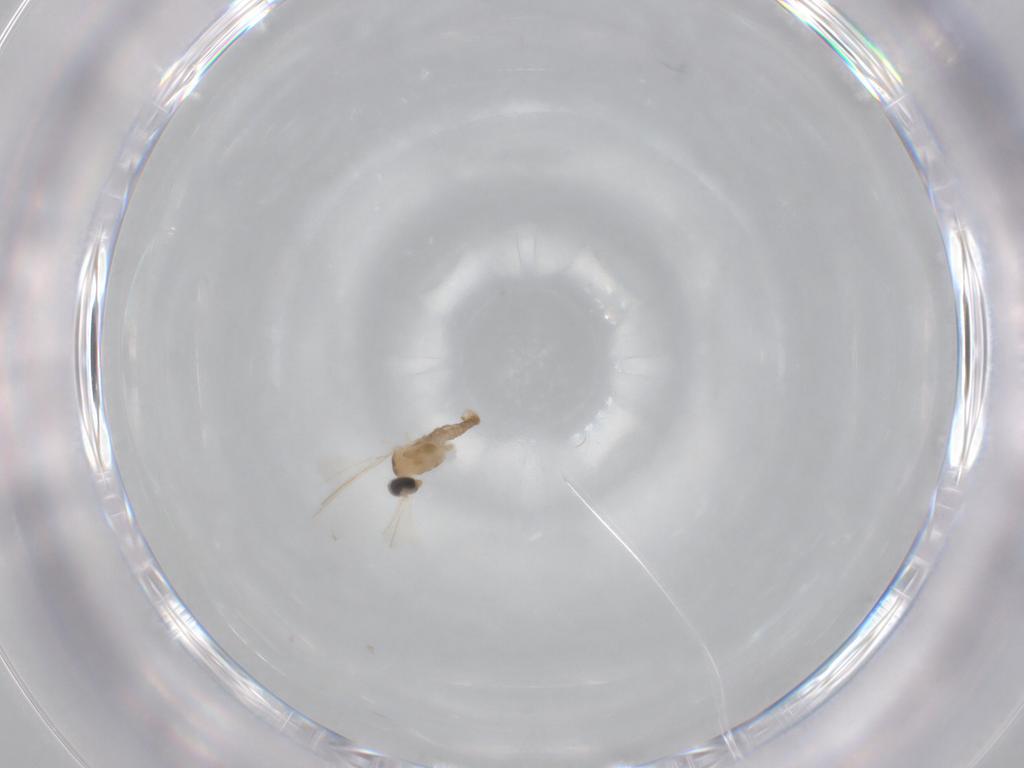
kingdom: Animalia
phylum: Arthropoda
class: Insecta
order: Diptera
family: Cecidomyiidae
